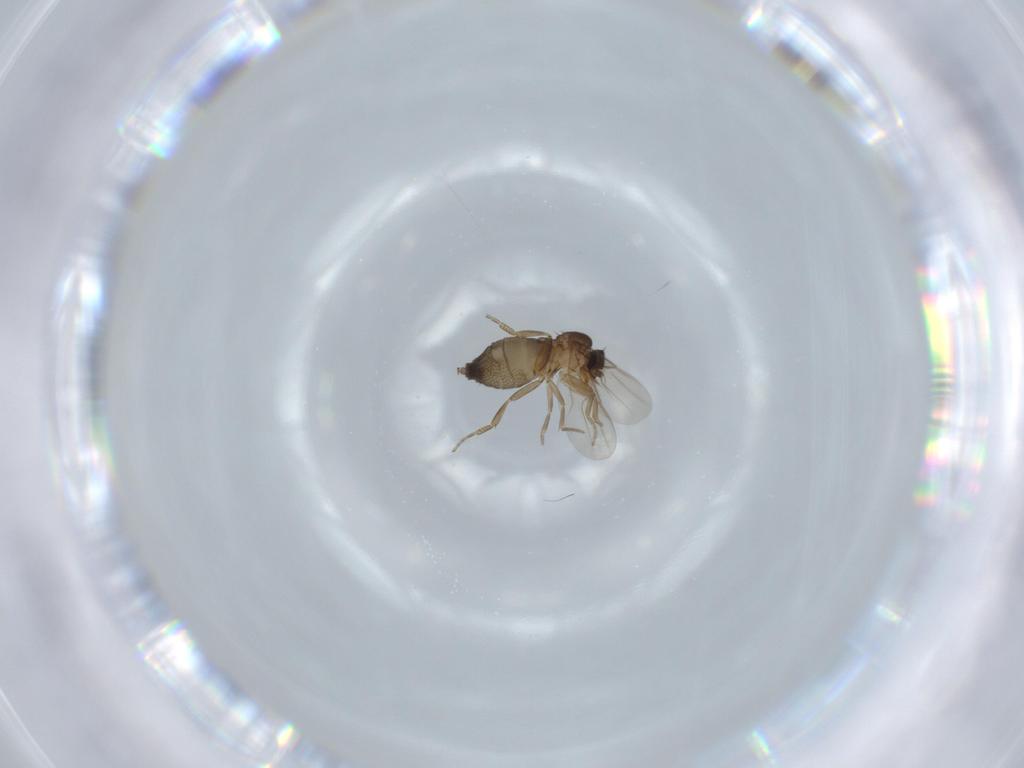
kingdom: Animalia
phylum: Arthropoda
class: Insecta
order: Diptera
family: Phoridae
